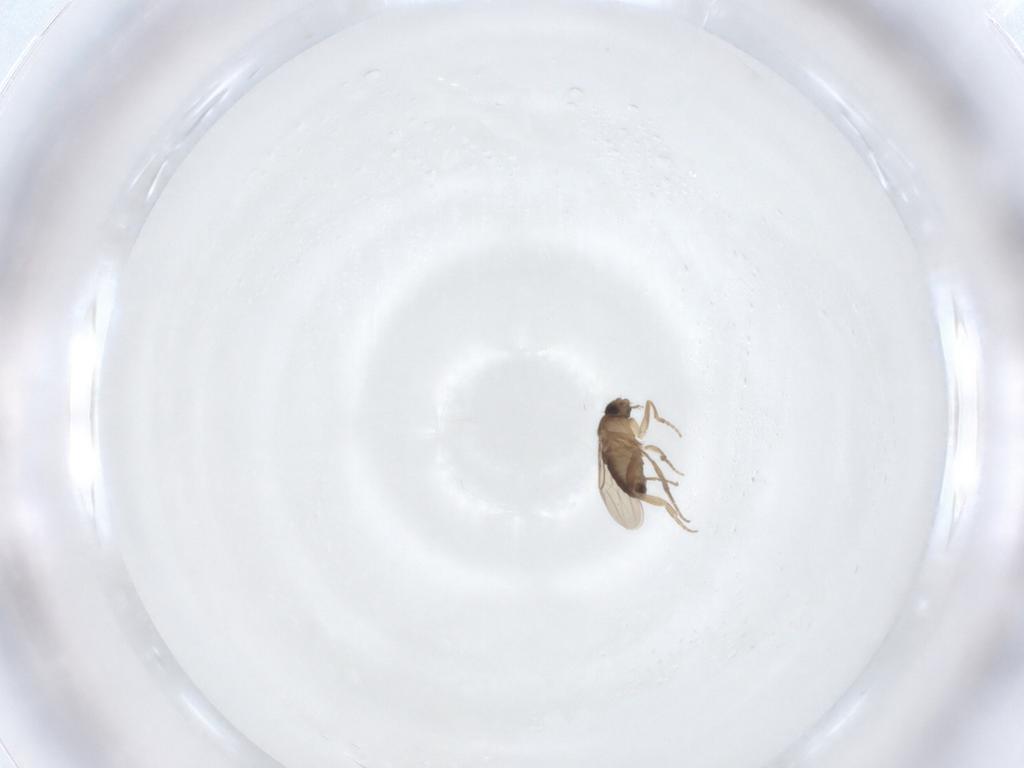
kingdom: Animalia
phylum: Arthropoda
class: Insecta
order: Diptera
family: Phoridae
